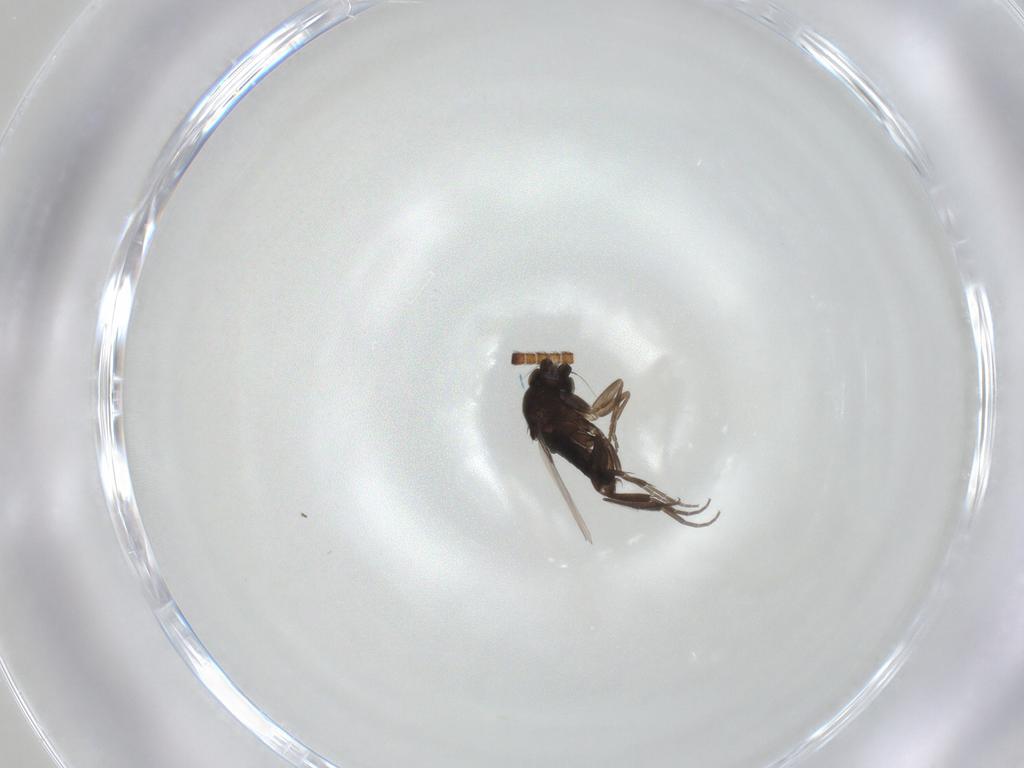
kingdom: Animalia
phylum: Arthropoda
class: Insecta
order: Diptera
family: Phoridae
